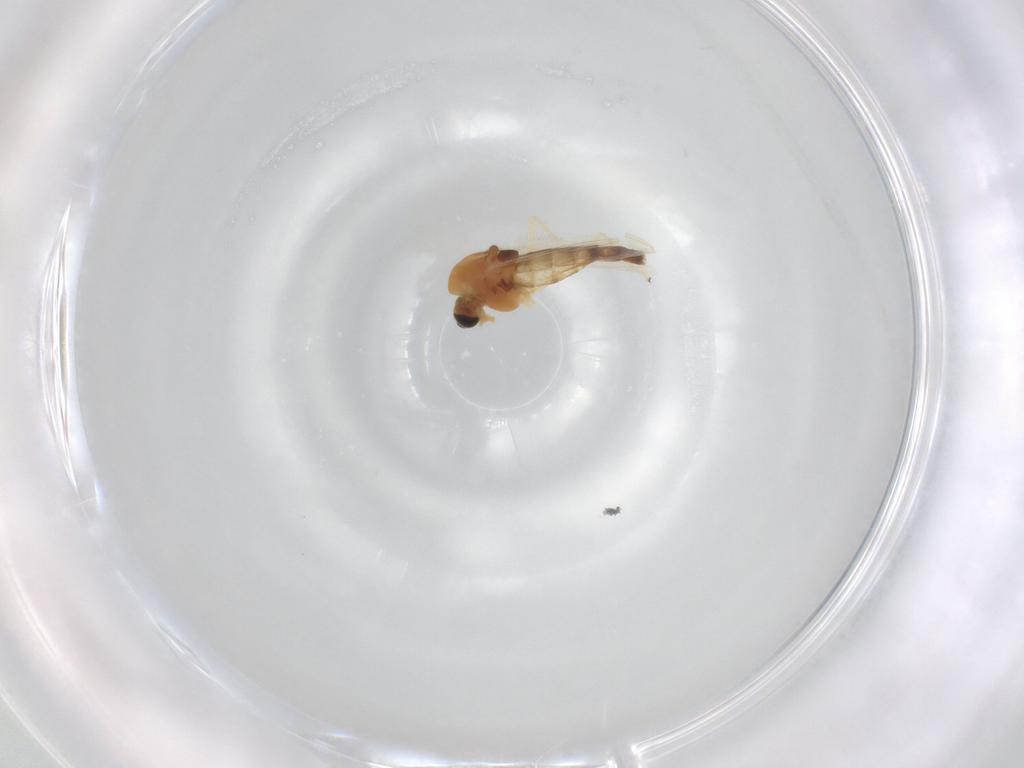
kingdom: Animalia
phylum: Arthropoda
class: Insecta
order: Diptera
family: Chironomidae
